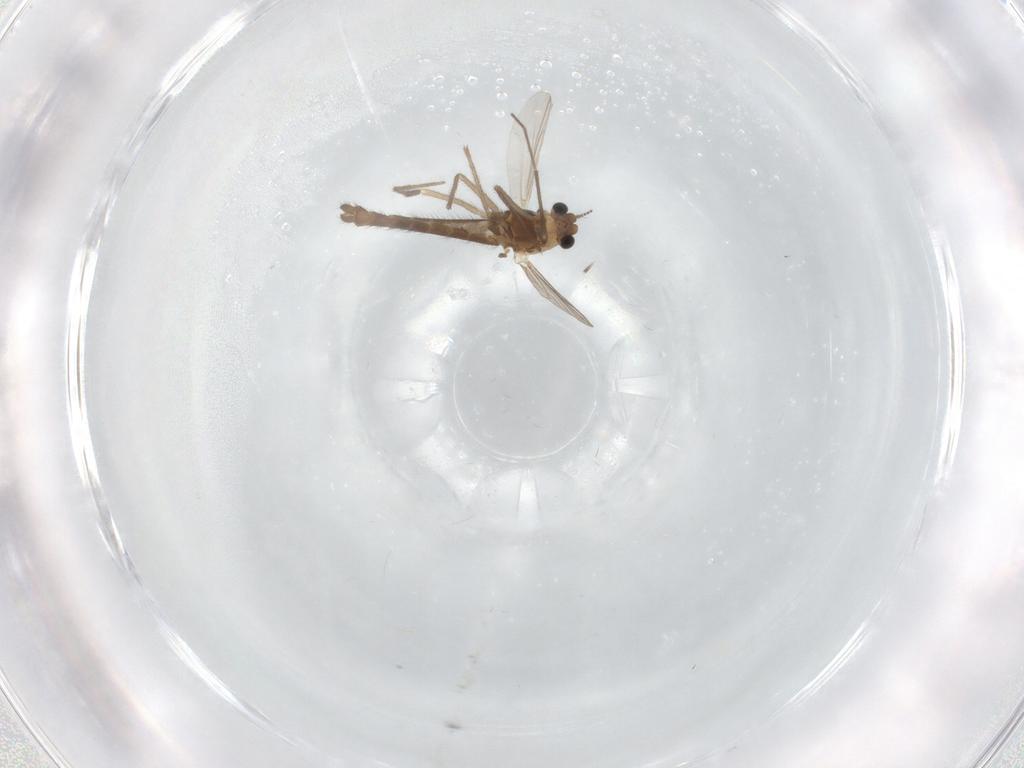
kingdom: Animalia
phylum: Arthropoda
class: Insecta
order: Diptera
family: Chironomidae
